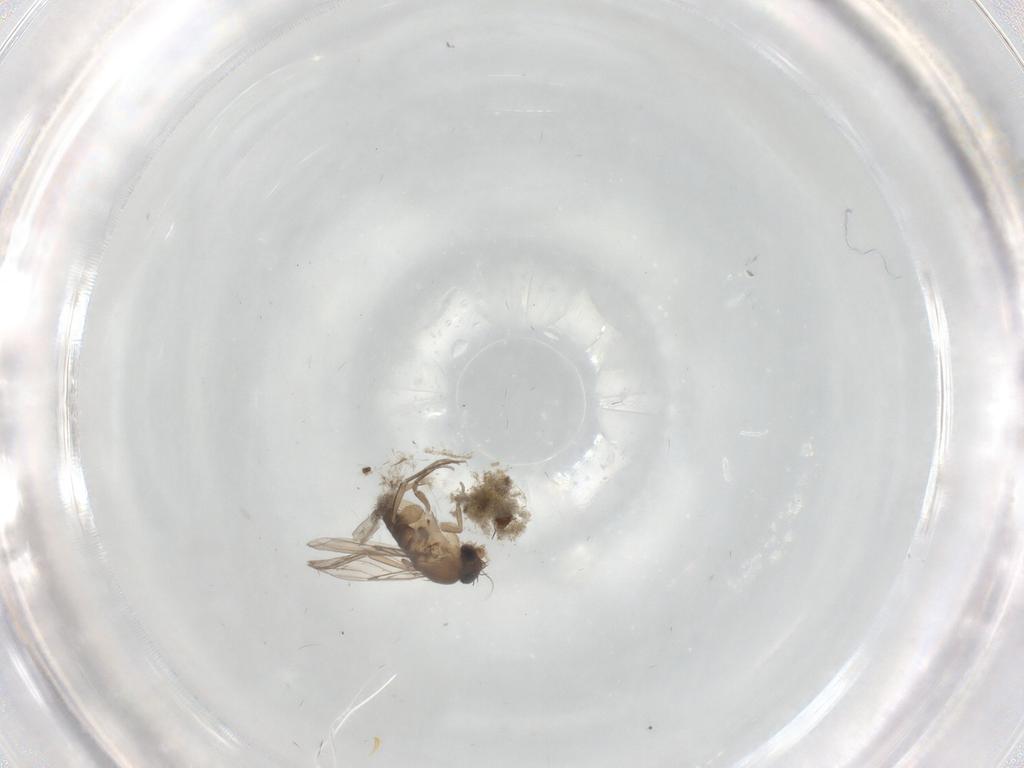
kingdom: Animalia
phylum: Arthropoda
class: Insecta
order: Diptera
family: Phoridae
